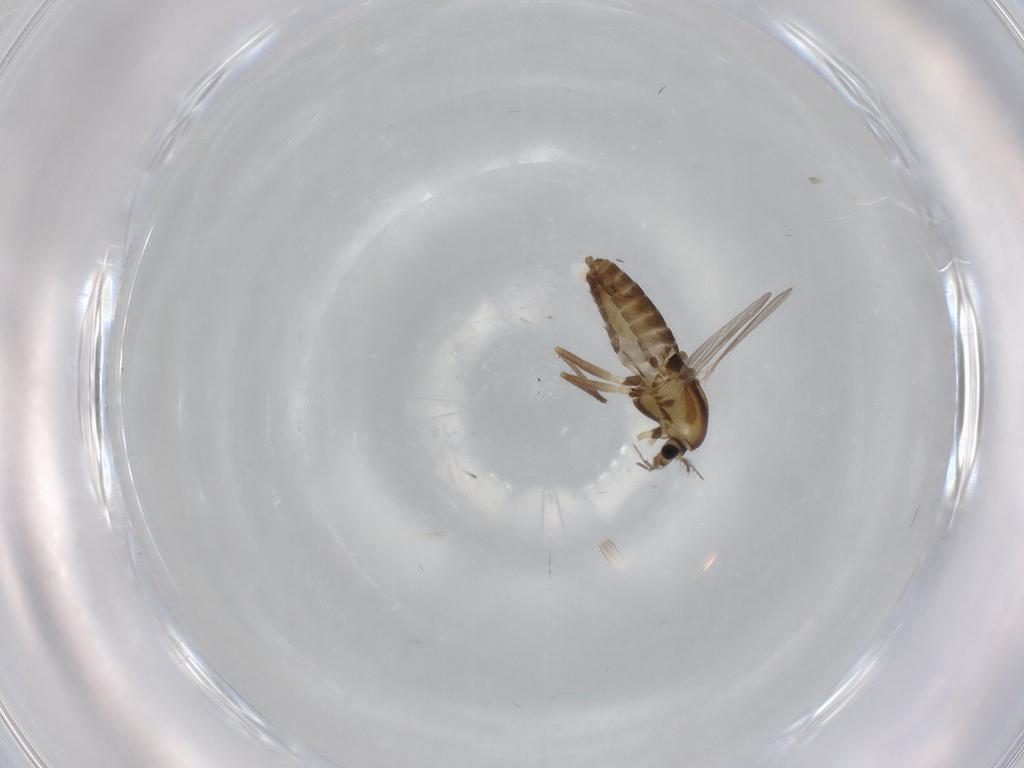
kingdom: Animalia
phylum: Arthropoda
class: Insecta
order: Diptera
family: Chironomidae
